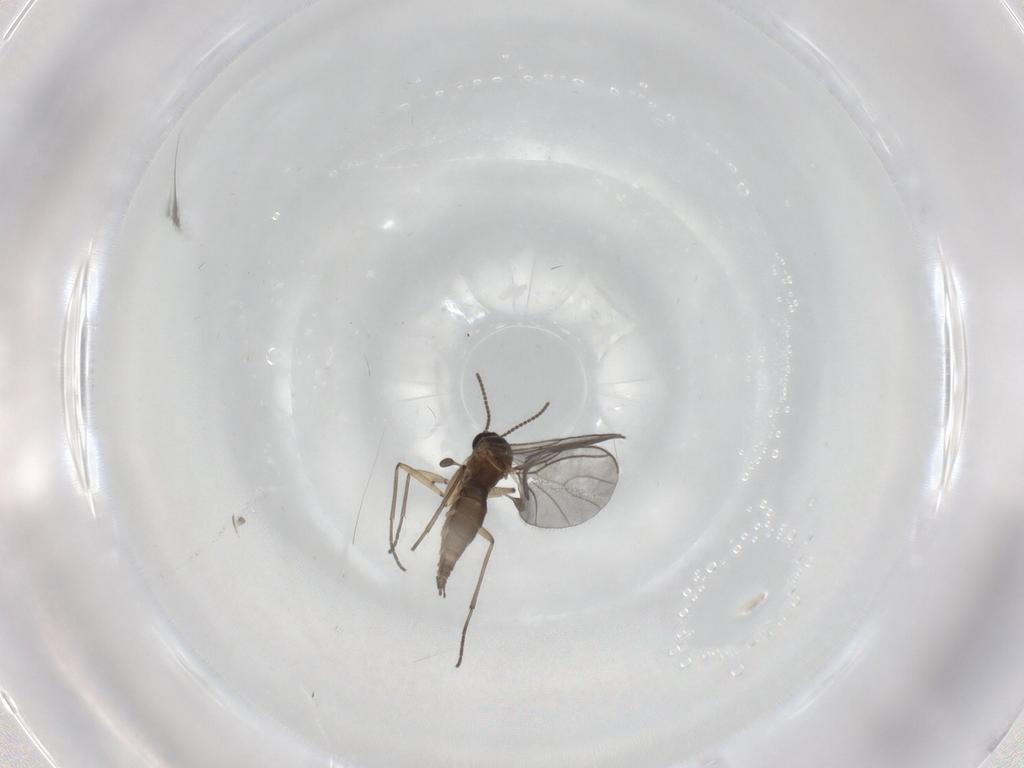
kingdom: Animalia
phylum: Arthropoda
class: Insecta
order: Diptera
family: Sciaridae
